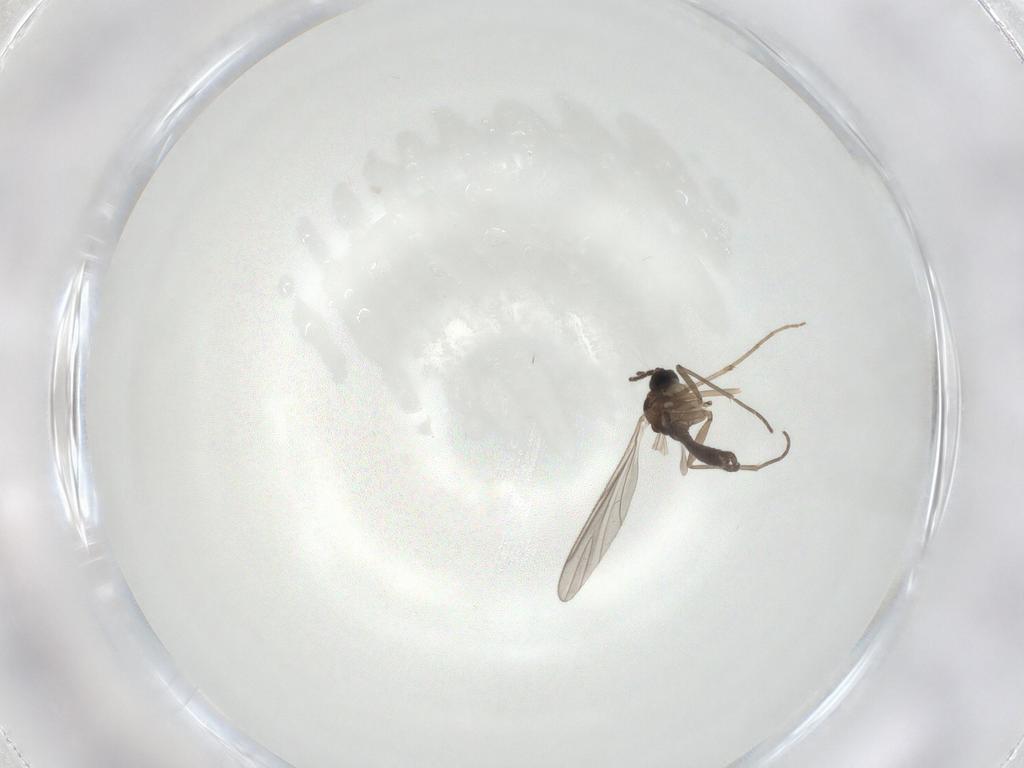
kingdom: Animalia
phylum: Arthropoda
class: Insecta
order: Diptera
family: Sciaridae
